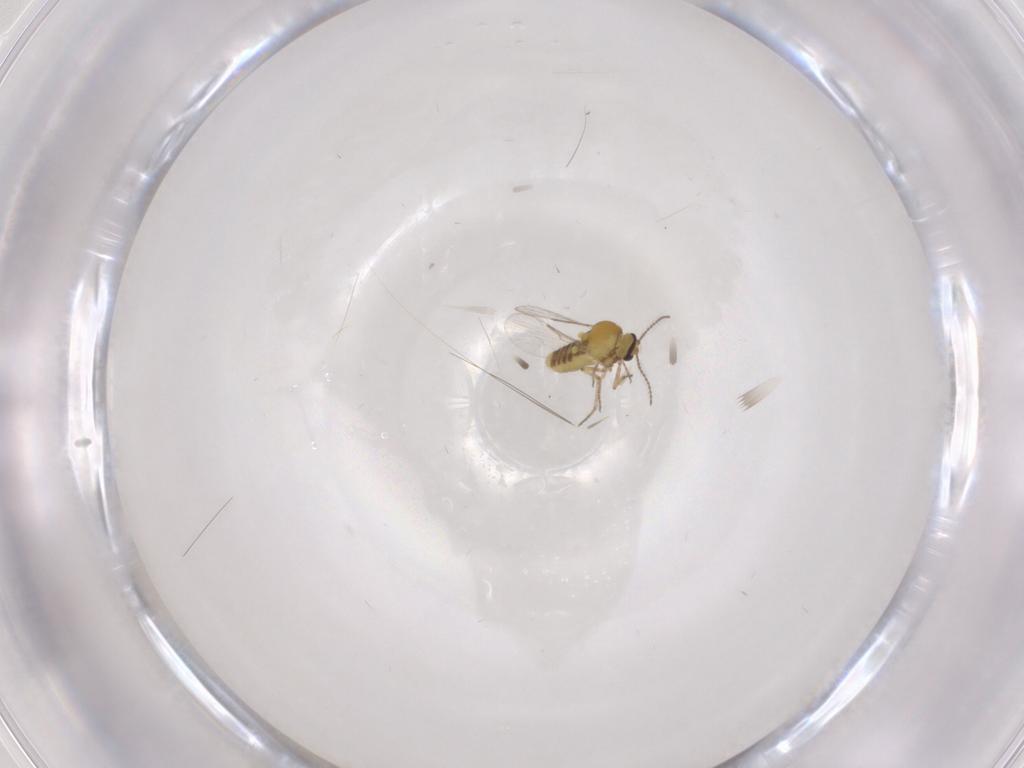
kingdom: Animalia
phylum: Arthropoda
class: Insecta
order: Diptera
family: Ceratopogonidae
